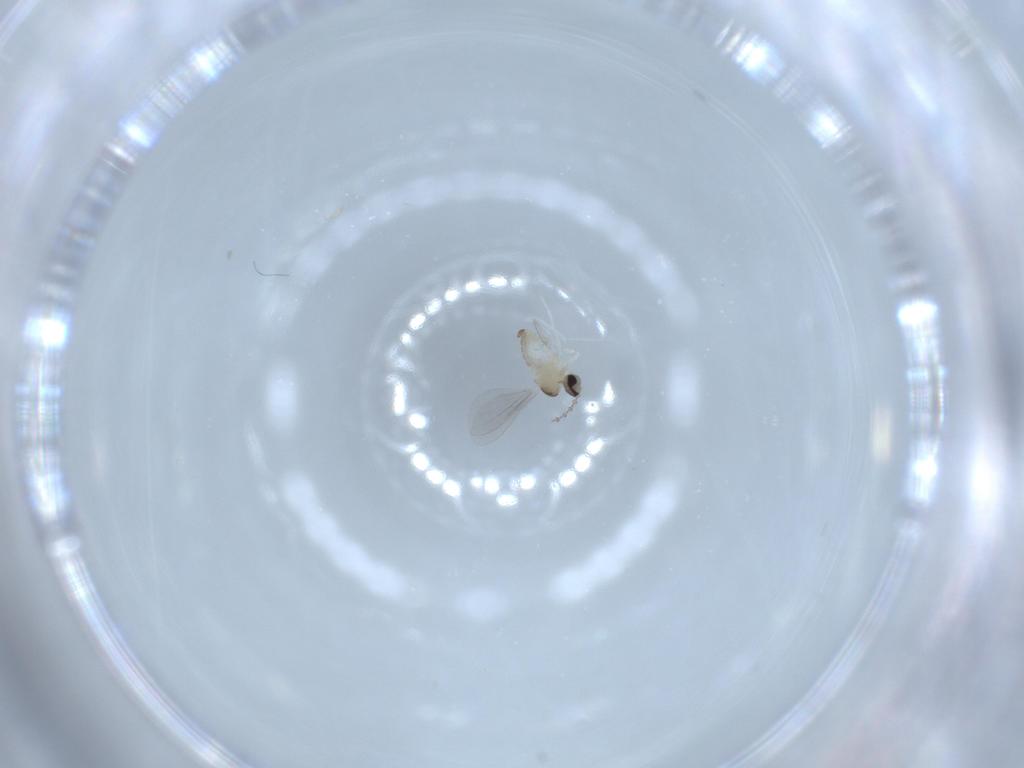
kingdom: Animalia
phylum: Arthropoda
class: Insecta
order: Diptera
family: Cecidomyiidae
